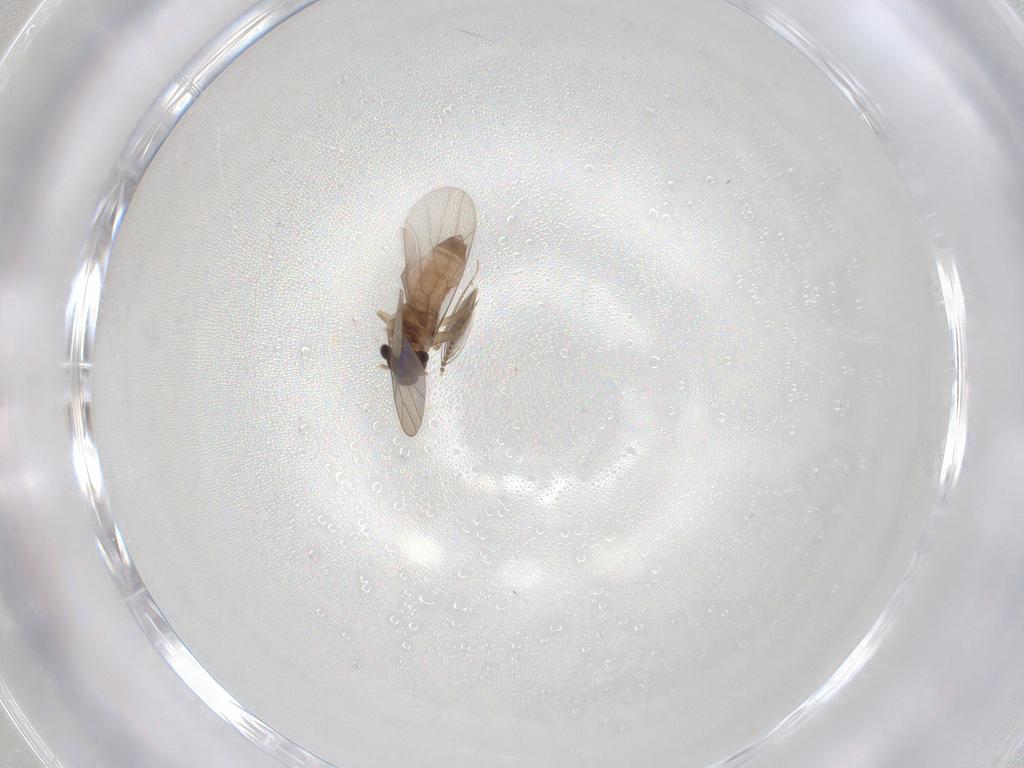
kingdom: Animalia
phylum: Arthropoda
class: Insecta
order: Psocodea
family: Lepidopsocidae
